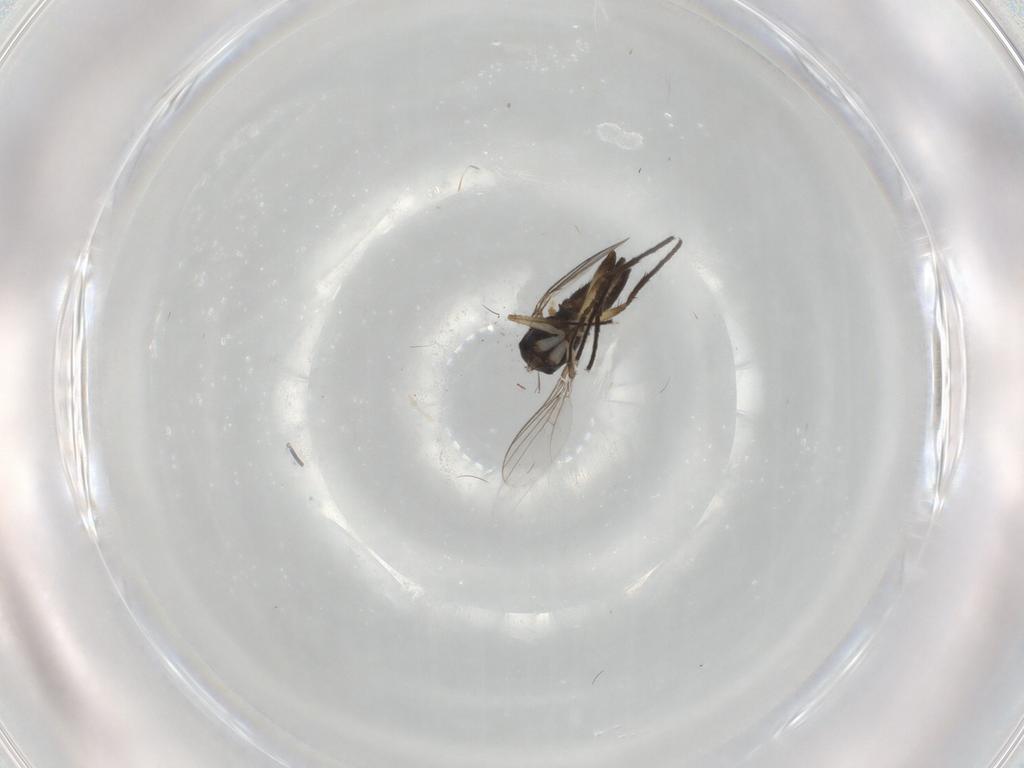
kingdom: Animalia
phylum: Arthropoda
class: Insecta
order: Diptera
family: Dolichopodidae
